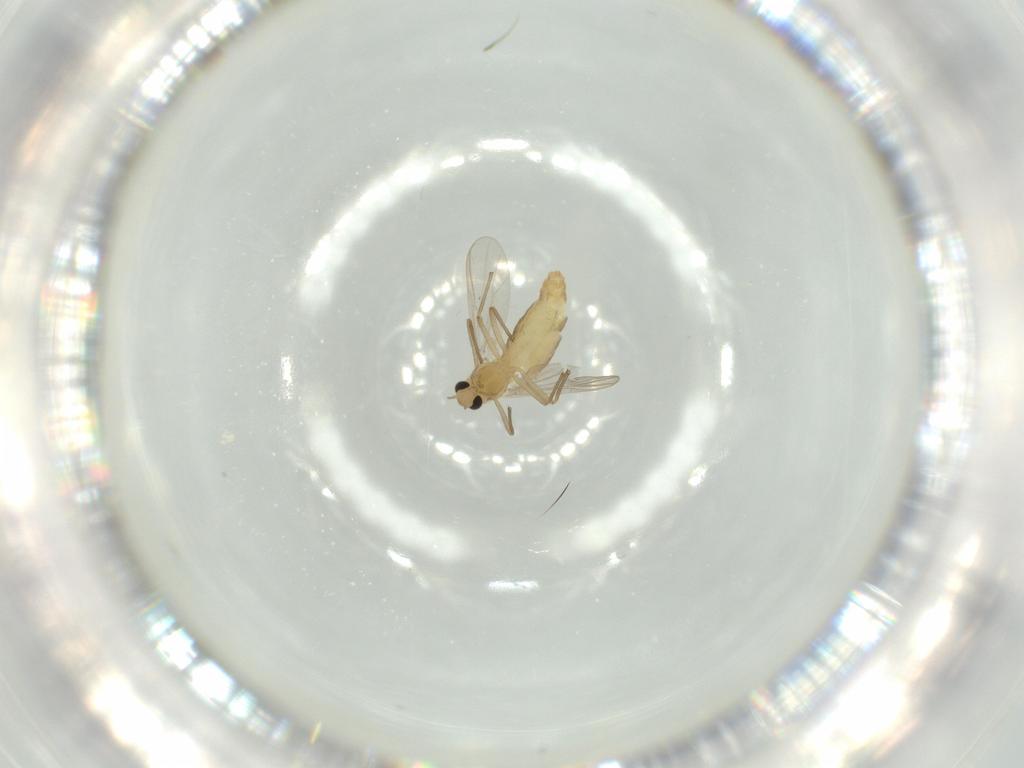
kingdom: Animalia
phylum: Arthropoda
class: Insecta
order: Diptera
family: Chironomidae
